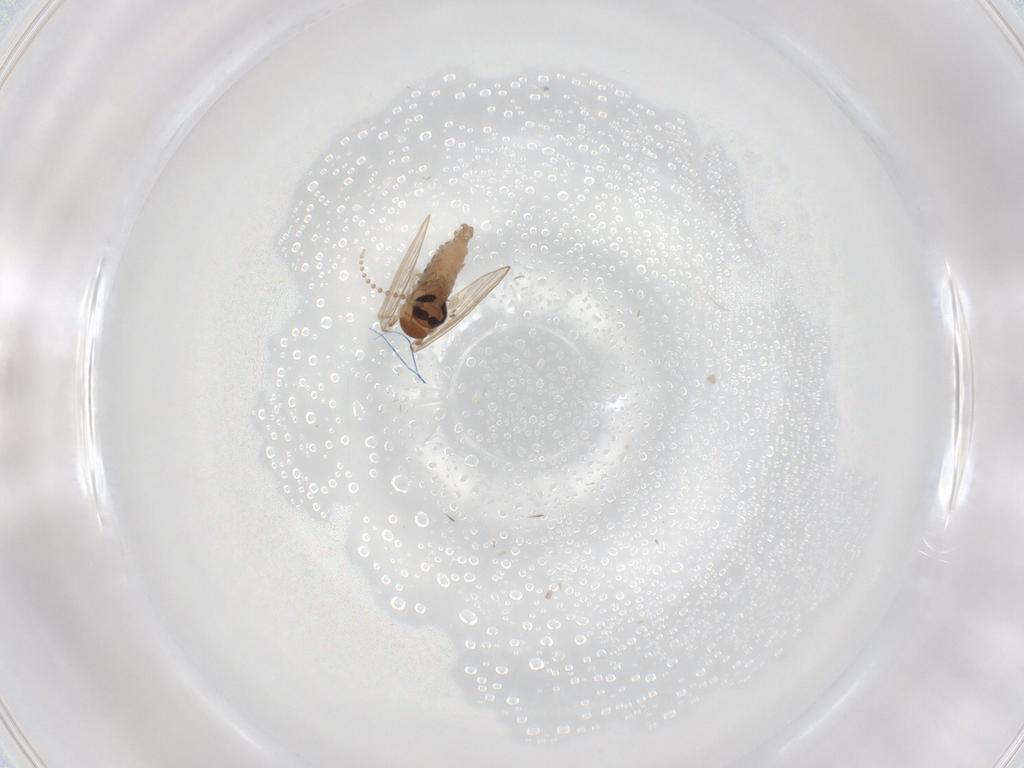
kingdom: Animalia
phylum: Arthropoda
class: Insecta
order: Diptera
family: Psychodidae
